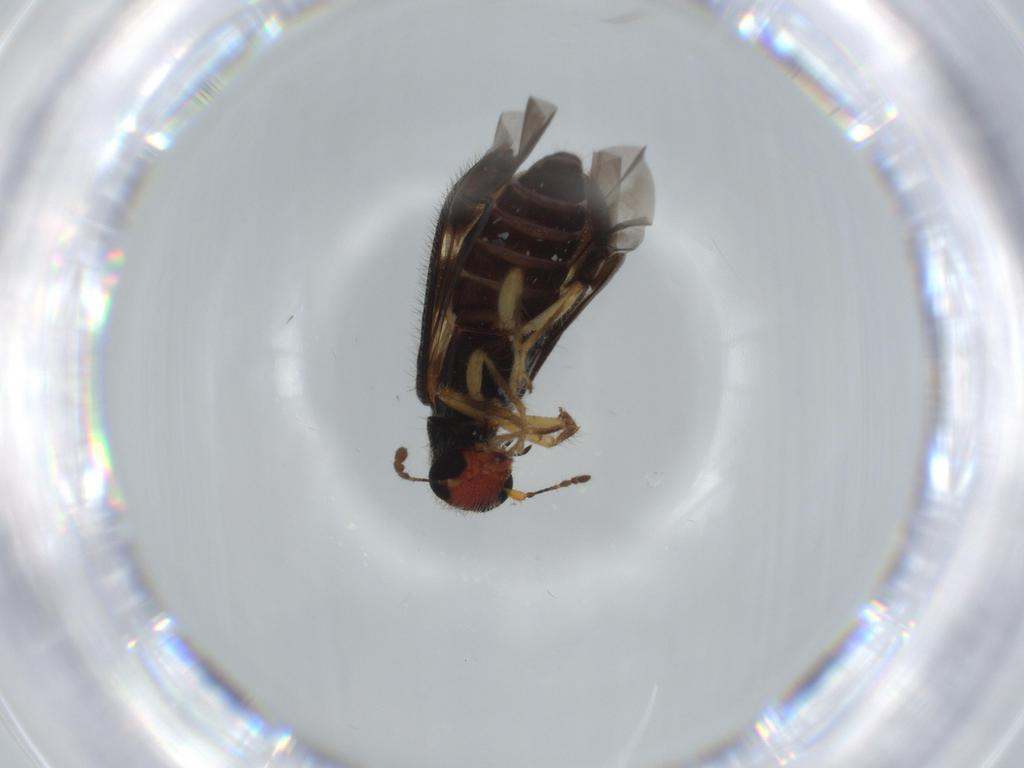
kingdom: Animalia
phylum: Arthropoda
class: Insecta
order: Coleoptera
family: Cleridae
